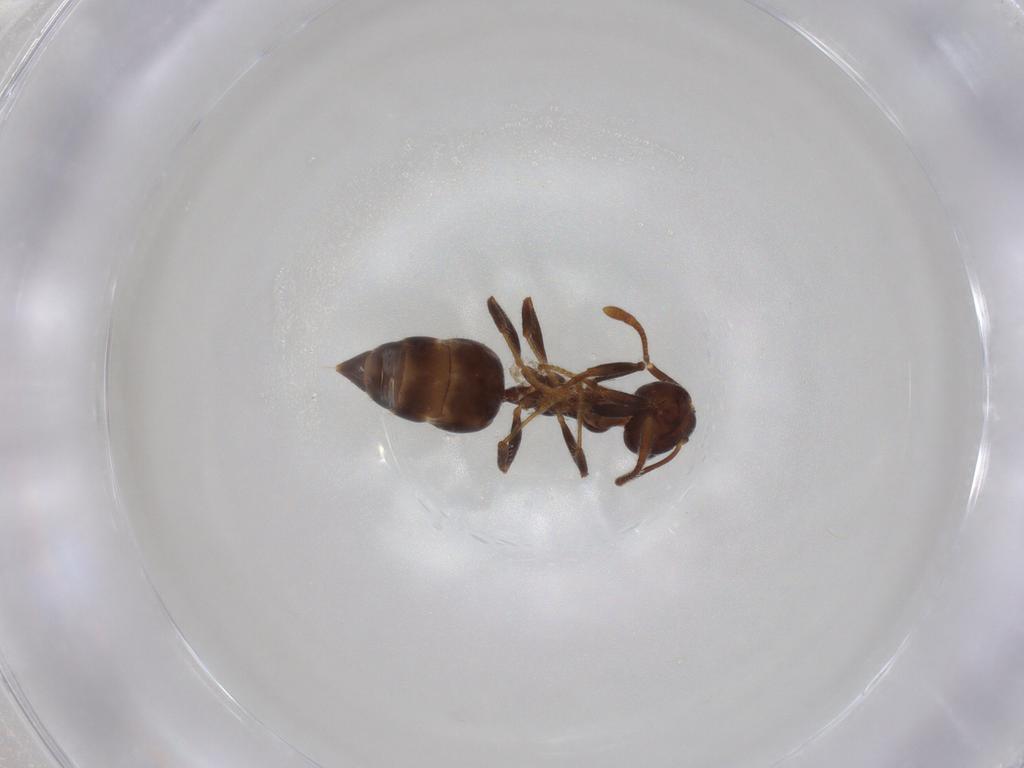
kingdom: Animalia
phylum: Arthropoda
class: Insecta
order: Hymenoptera
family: Formicidae
